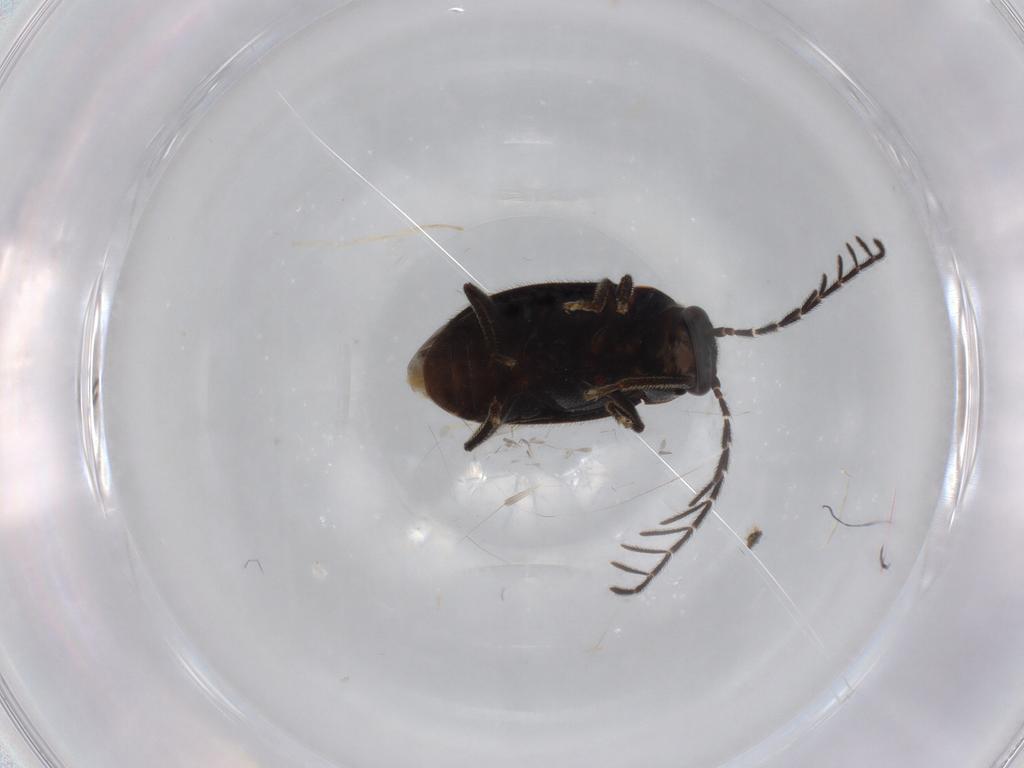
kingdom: Animalia
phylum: Arthropoda
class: Insecta
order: Coleoptera
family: Ptilodactylidae
